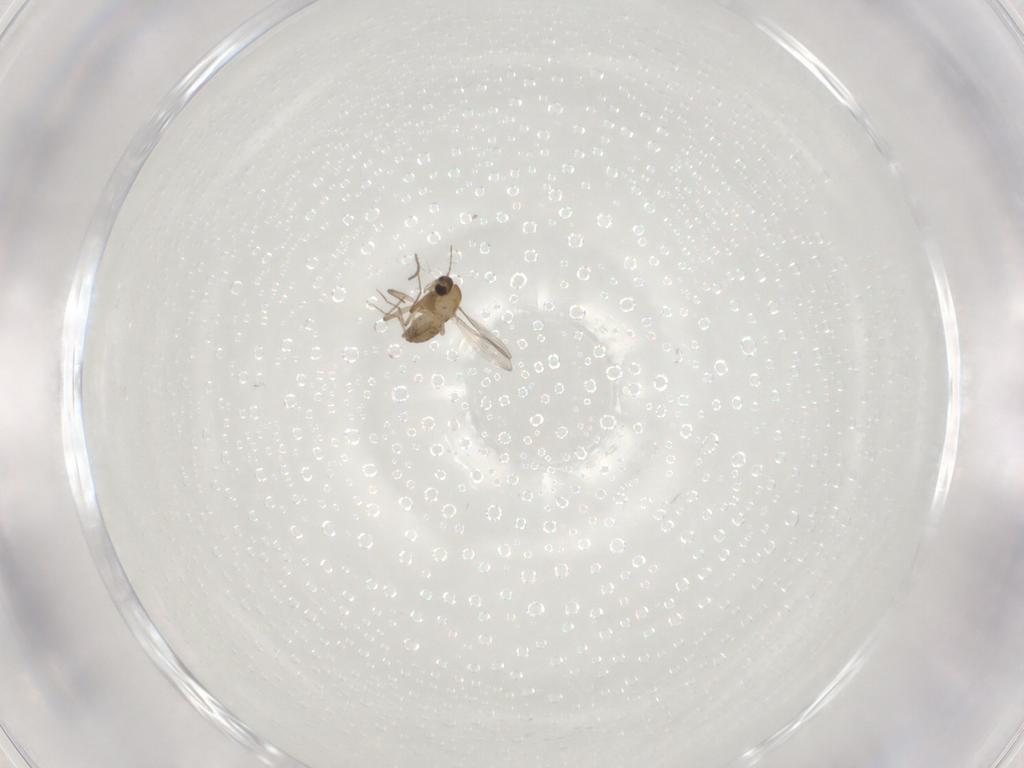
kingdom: Animalia
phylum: Arthropoda
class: Insecta
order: Diptera
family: Chironomidae
